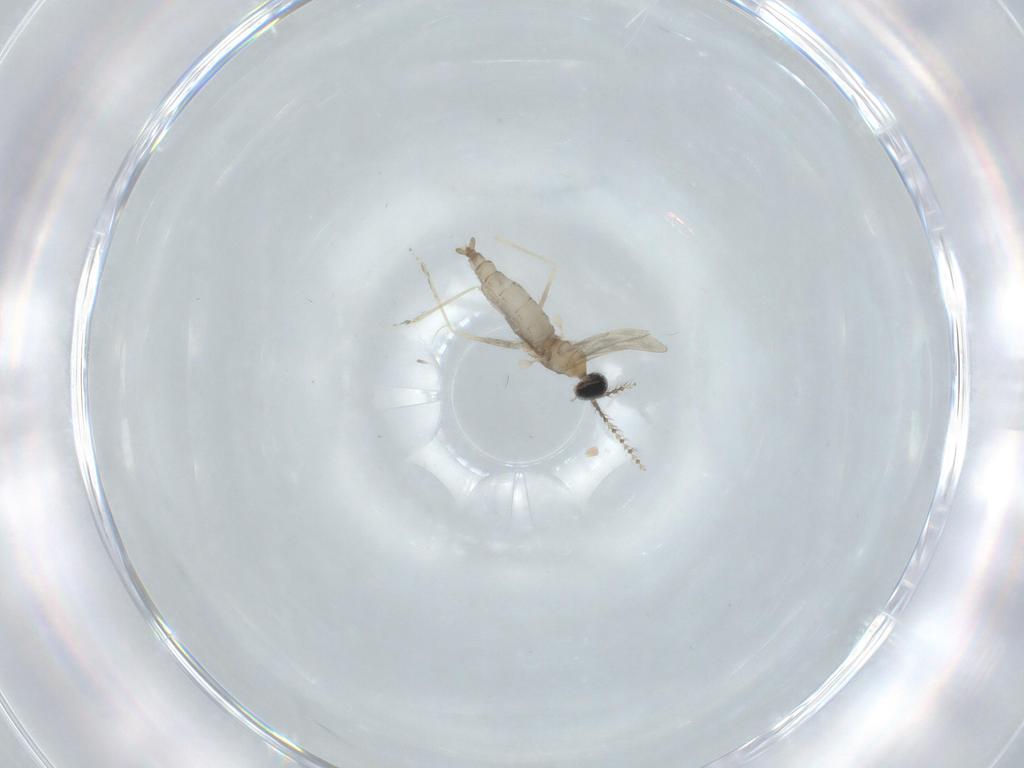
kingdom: Animalia
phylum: Arthropoda
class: Insecta
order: Diptera
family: Cecidomyiidae
